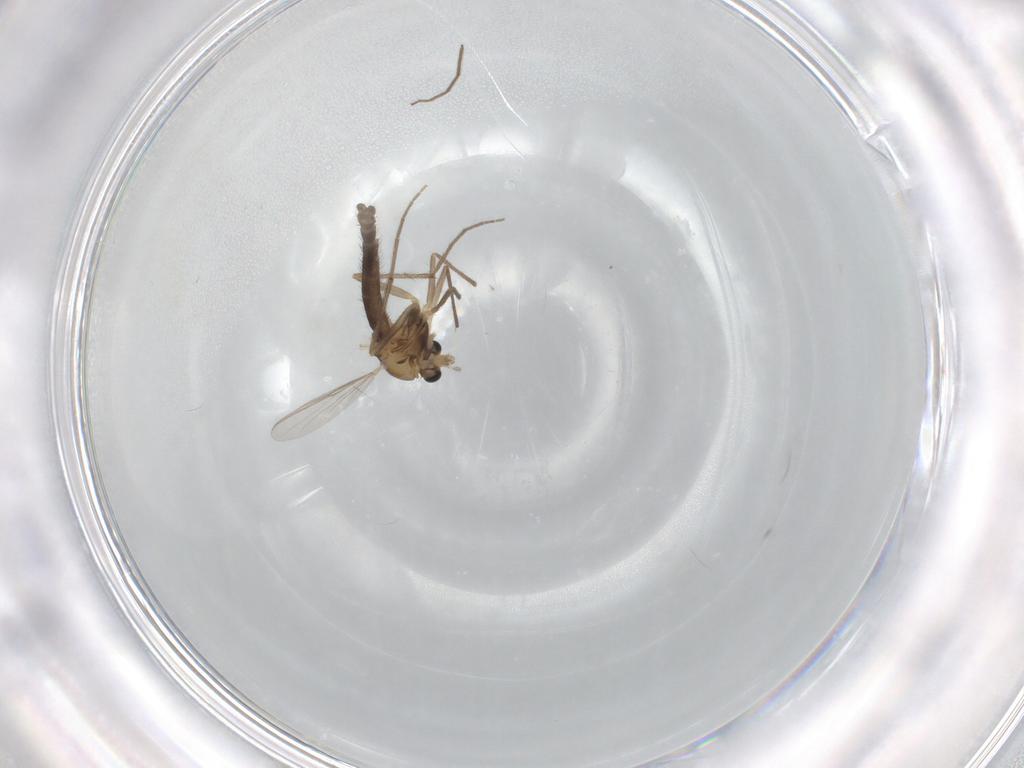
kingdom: Animalia
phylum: Arthropoda
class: Insecta
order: Diptera
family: Chironomidae
